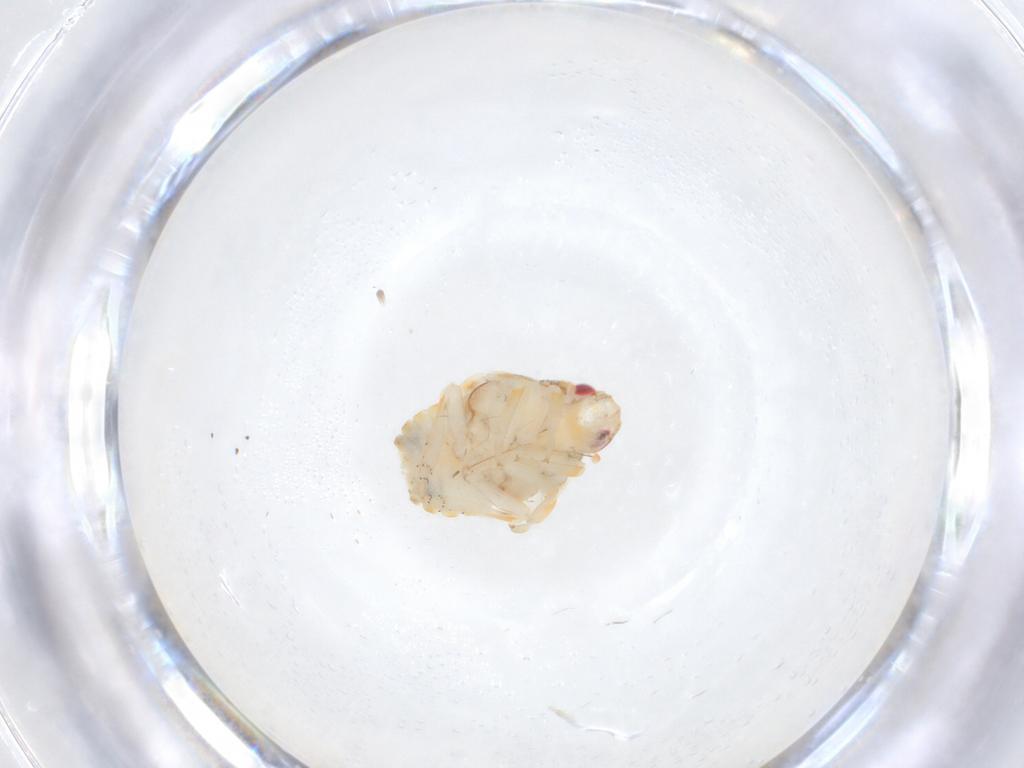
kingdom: Animalia
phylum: Arthropoda
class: Insecta
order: Hemiptera
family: Flatidae
